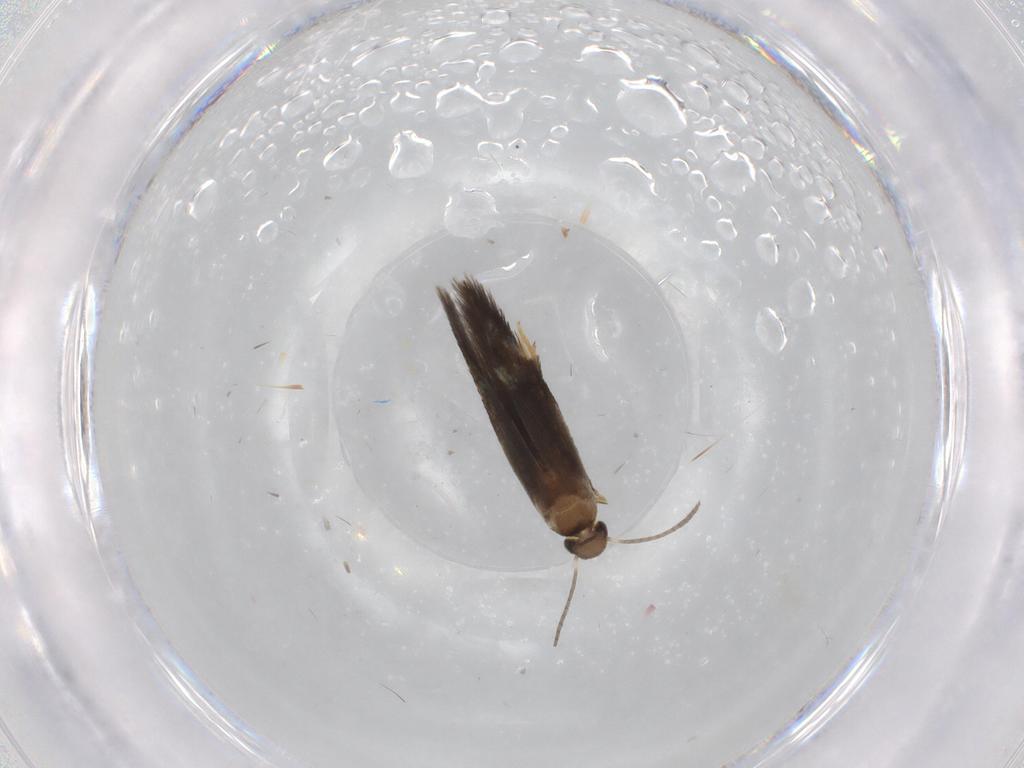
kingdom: Animalia
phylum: Arthropoda
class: Insecta
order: Lepidoptera
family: Heliozelidae
